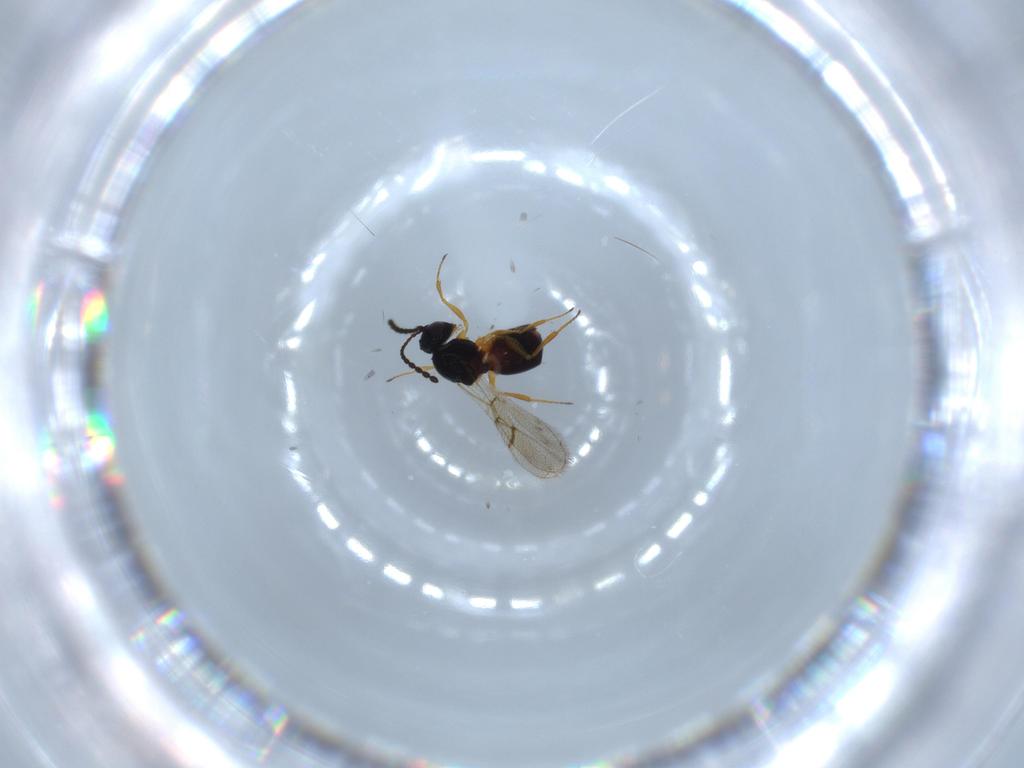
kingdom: Animalia
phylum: Arthropoda
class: Insecta
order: Hymenoptera
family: Figitidae
